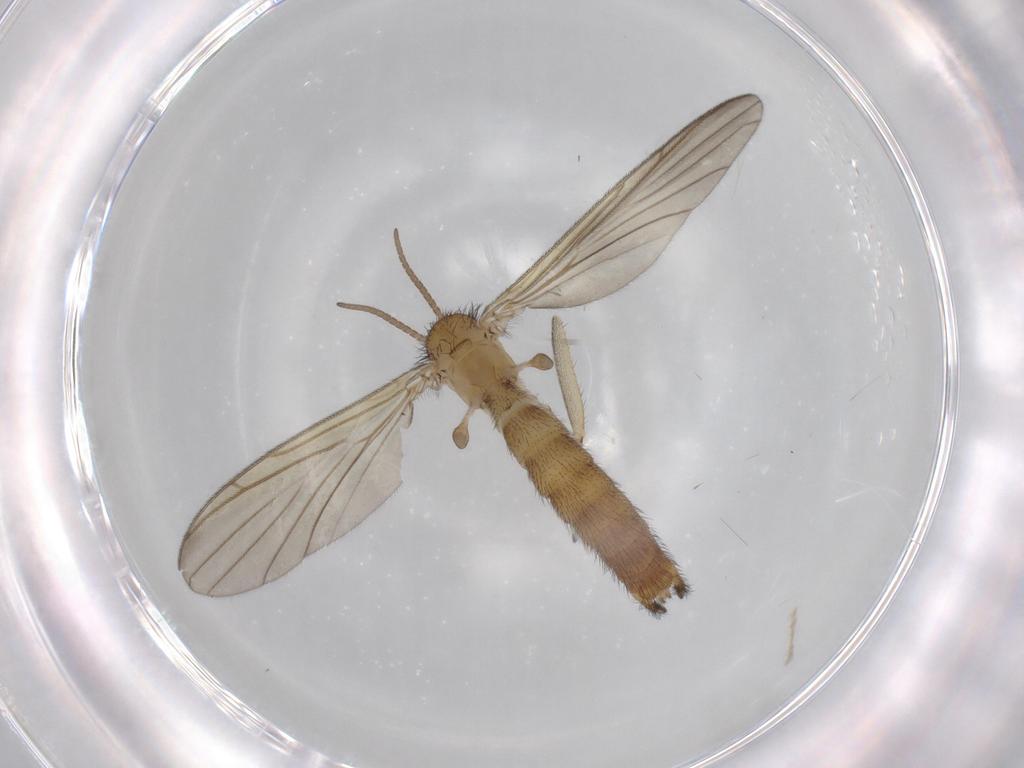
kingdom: Animalia
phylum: Arthropoda
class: Insecta
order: Diptera
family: Keroplatidae
